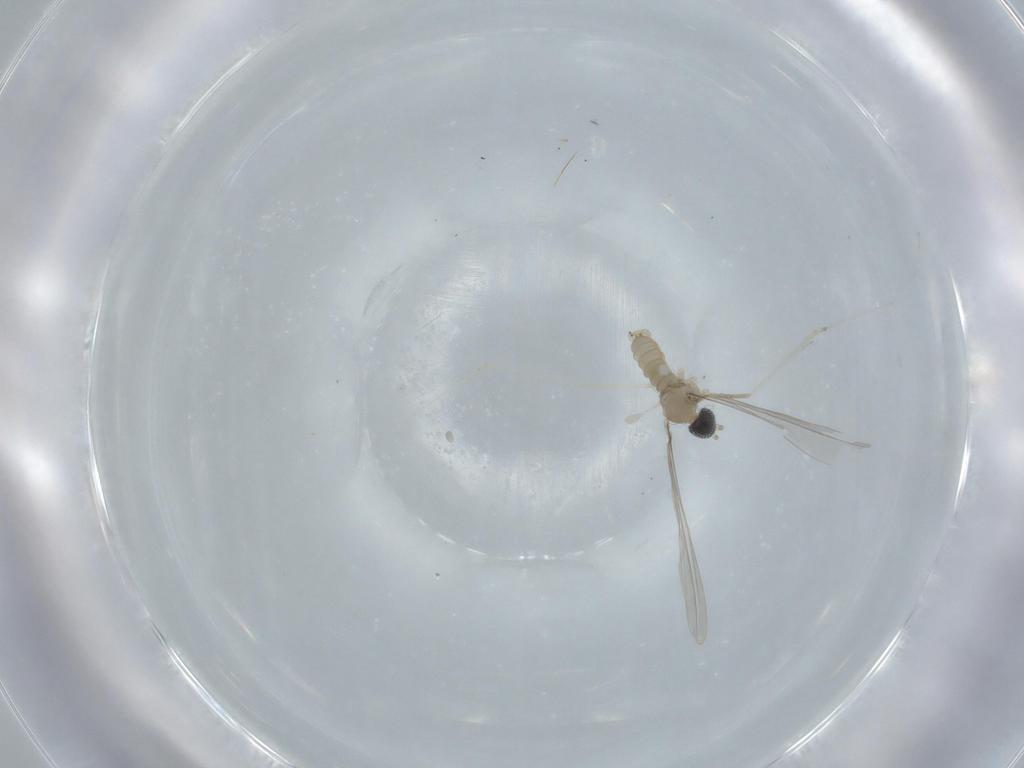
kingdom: Animalia
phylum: Arthropoda
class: Insecta
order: Diptera
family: Cecidomyiidae
